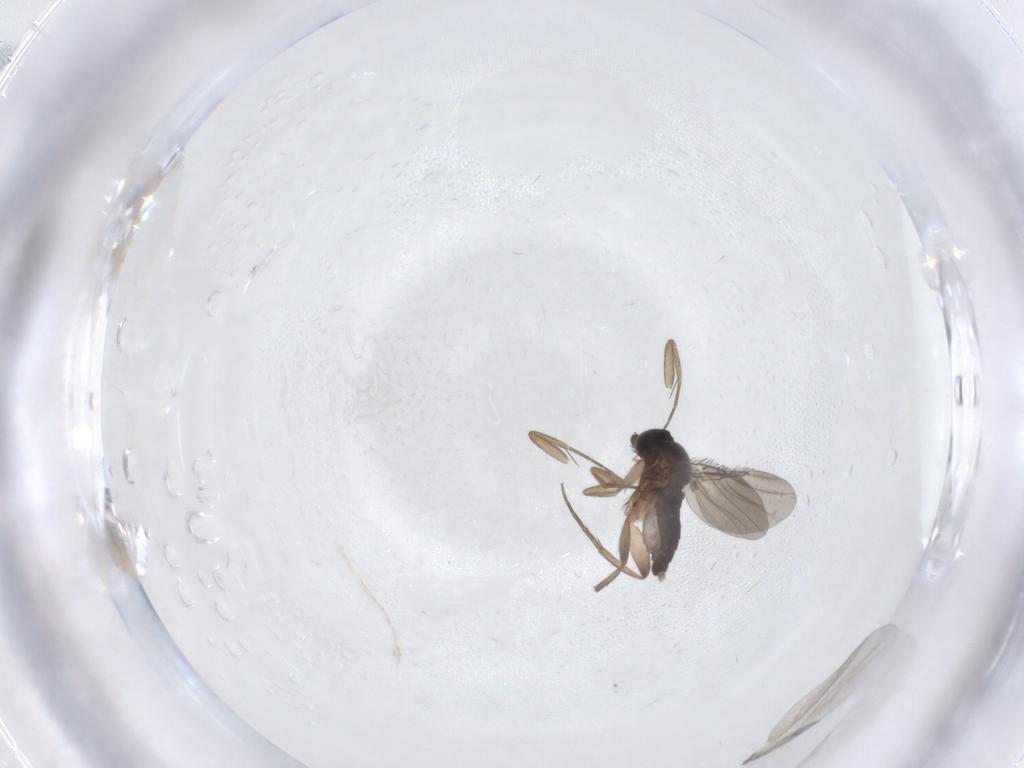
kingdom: Animalia
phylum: Arthropoda
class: Insecta
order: Diptera
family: Scatopsidae
